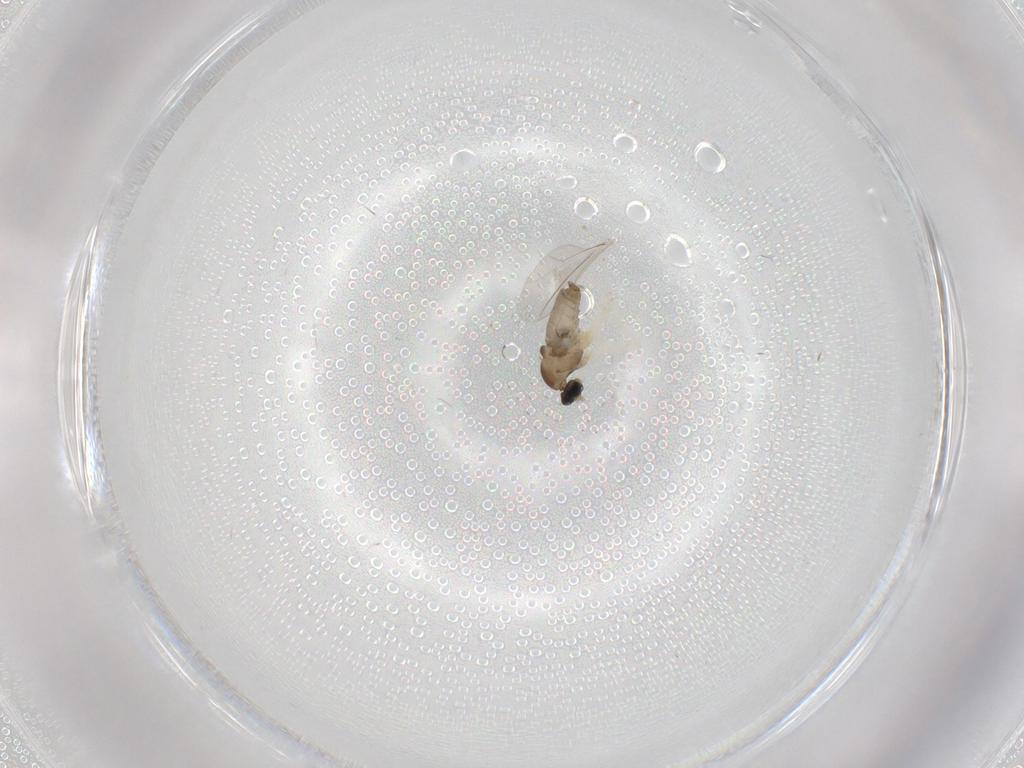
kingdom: Animalia
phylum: Arthropoda
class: Insecta
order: Diptera
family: Cecidomyiidae
